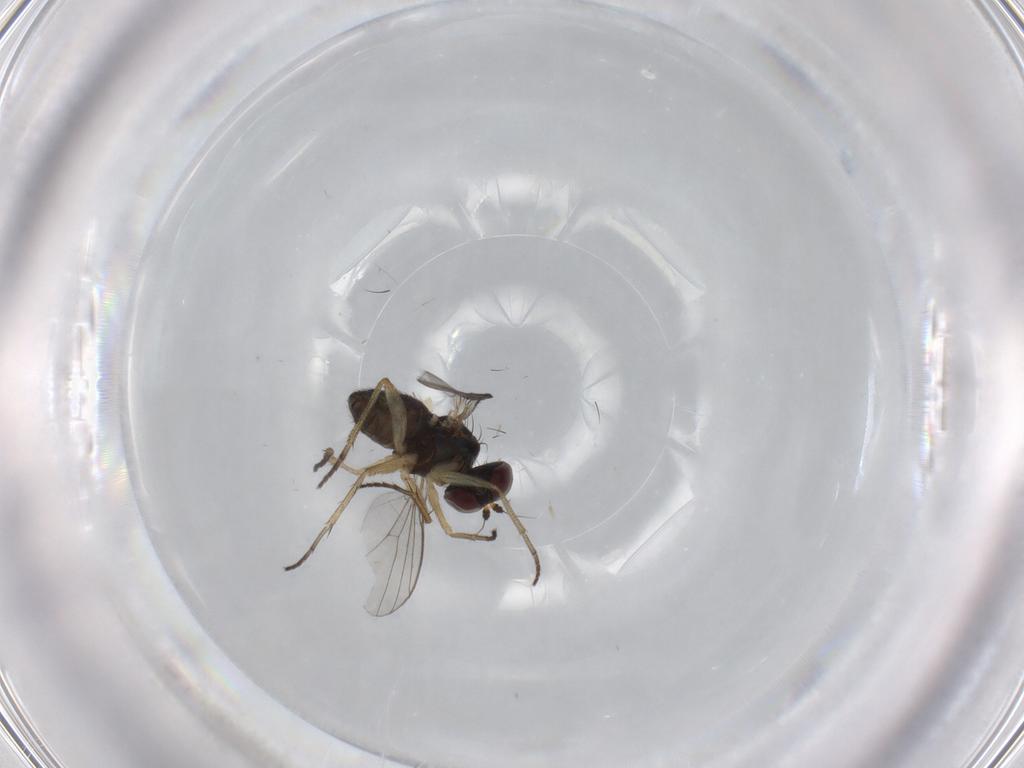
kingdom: Animalia
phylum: Arthropoda
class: Insecta
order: Diptera
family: Dolichopodidae
